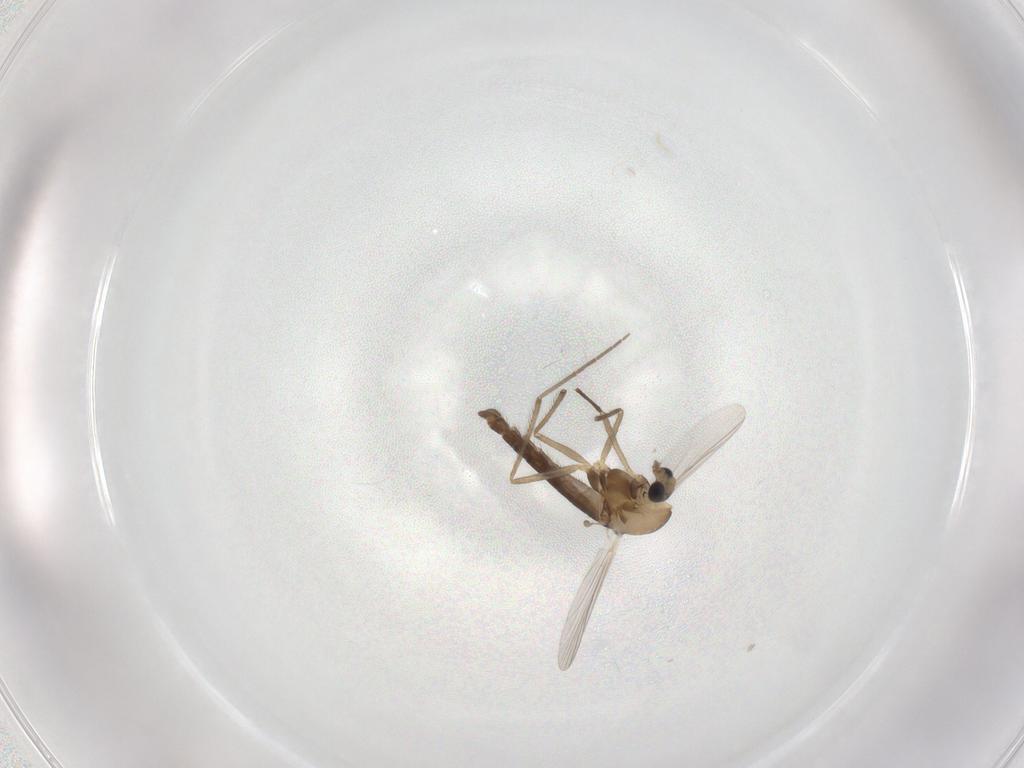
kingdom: Animalia
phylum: Arthropoda
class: Insecta
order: Diptera
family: Chironomidae
